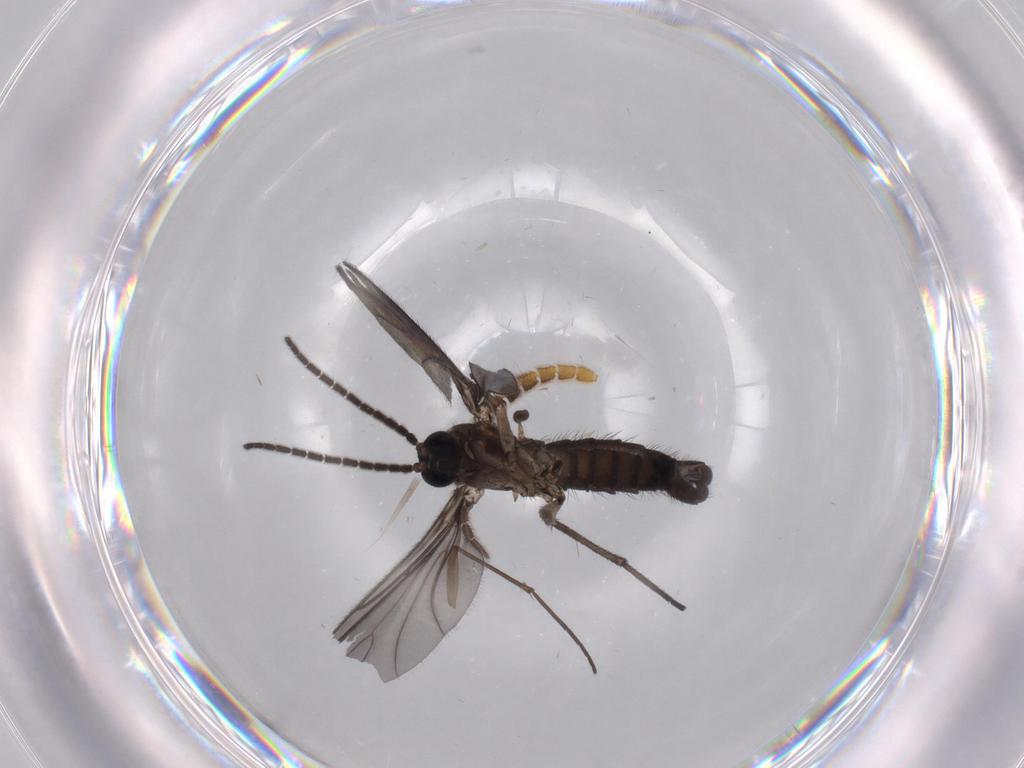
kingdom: Animalia
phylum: Arthropoda
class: Insecta
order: Diptera
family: Sciaridae
